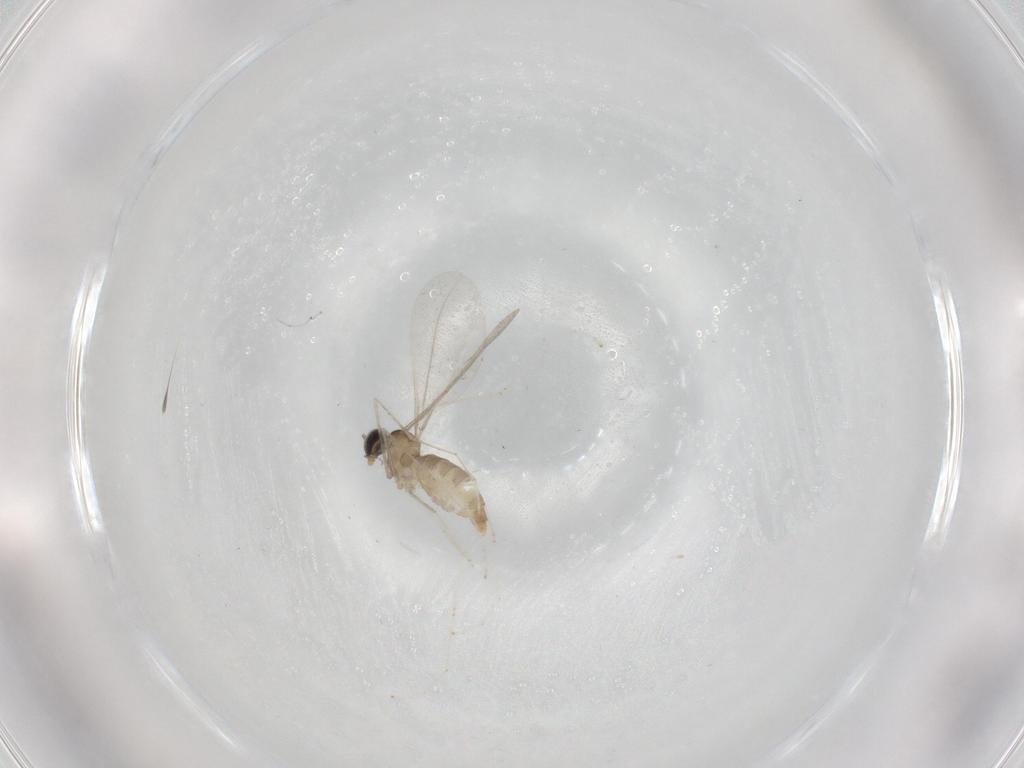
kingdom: Animalia
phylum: Arthropoda
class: Insecta
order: Diptera
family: Cecidomyiidae
